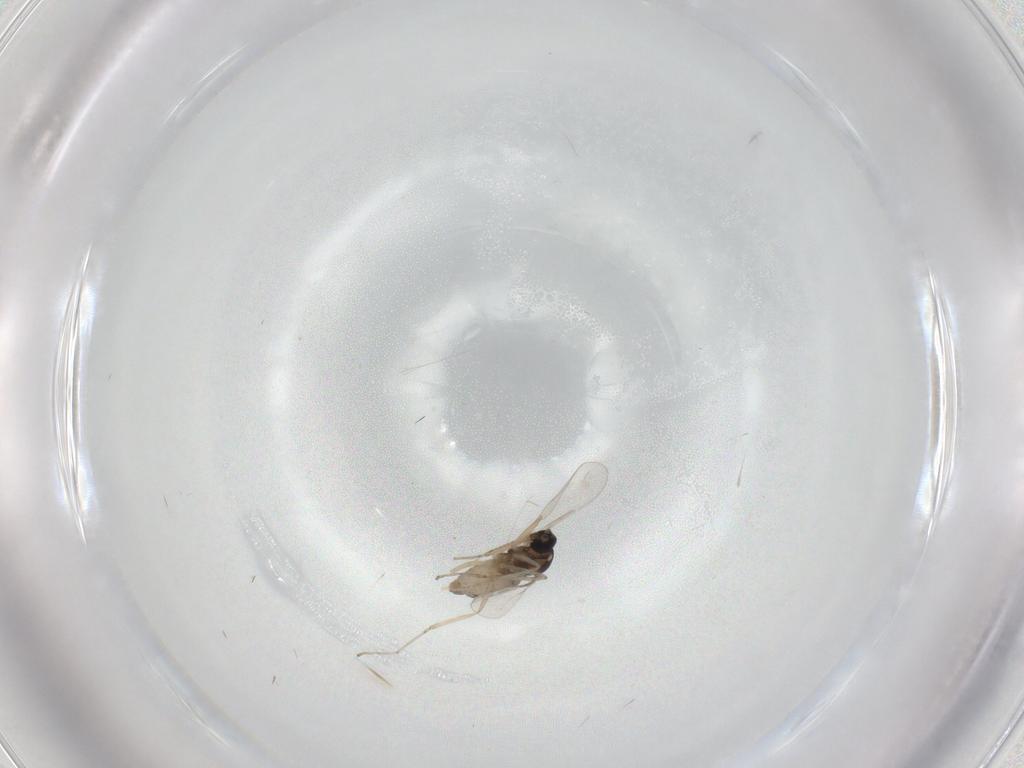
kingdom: Animalia
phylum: Arthropoda
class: Insecta
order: Diptera
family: Cecidomyiidae
